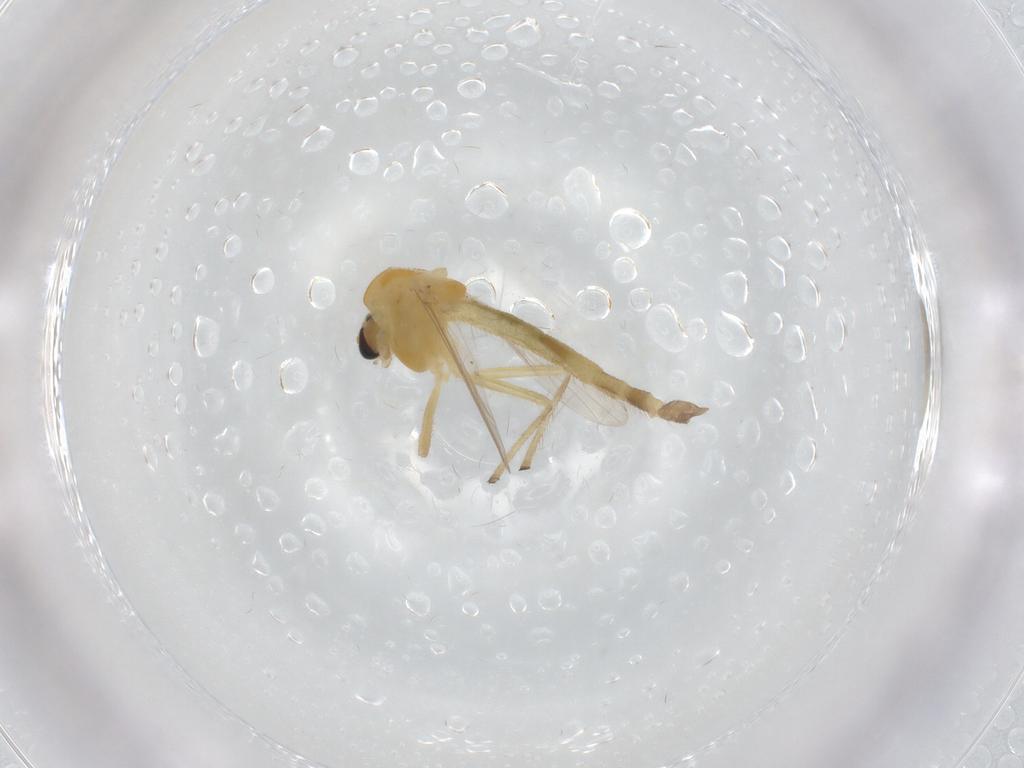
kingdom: Animalia
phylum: Arthropoda
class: Insecta
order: Diptera
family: Chironomidae
